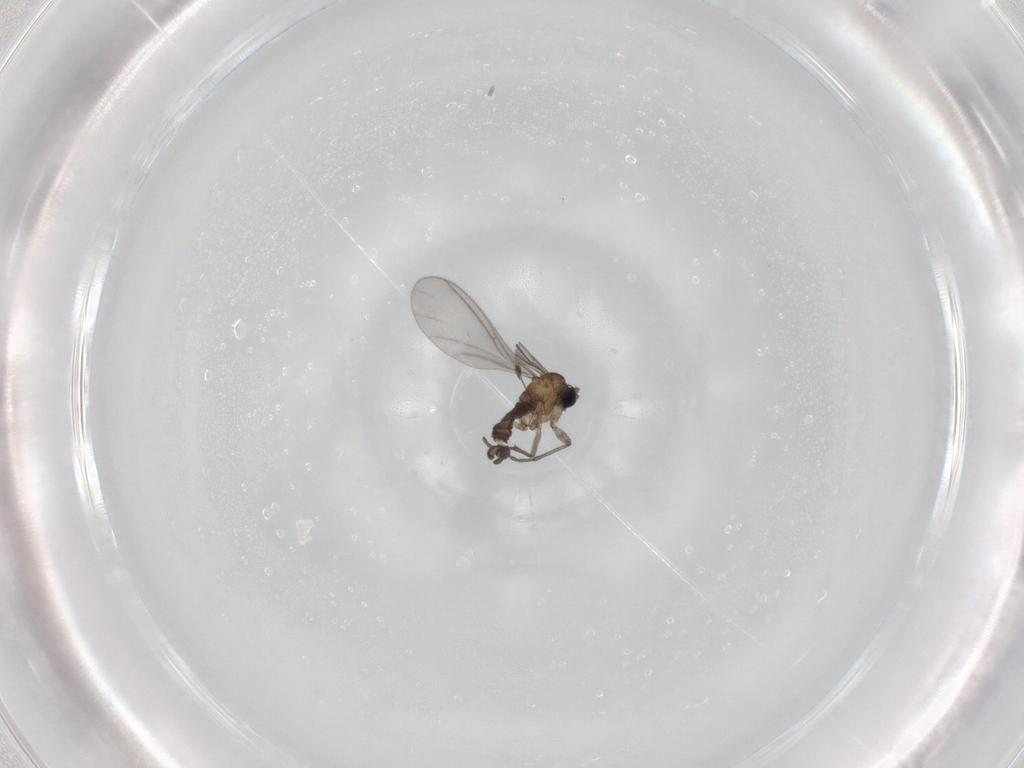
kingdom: Animalia
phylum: Arthropoda
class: Insecta
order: Diptera
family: Sciaridae
